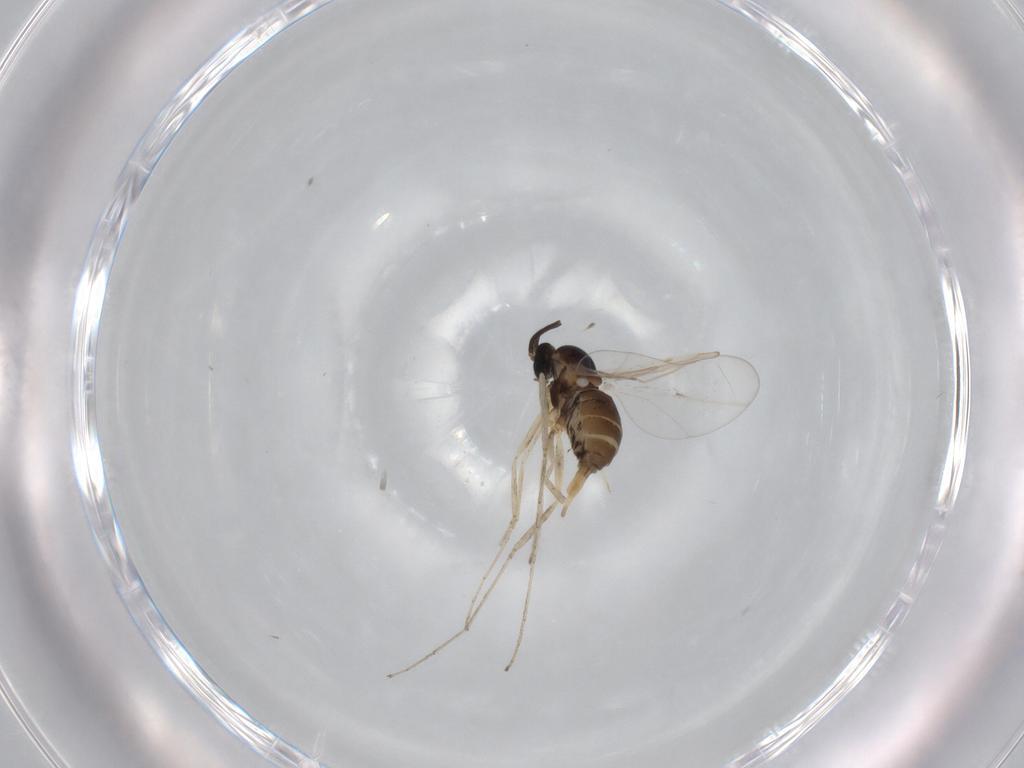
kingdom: Animalia
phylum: Arthropoda
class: Insecta
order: Diptera
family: Cecidomyiidae
